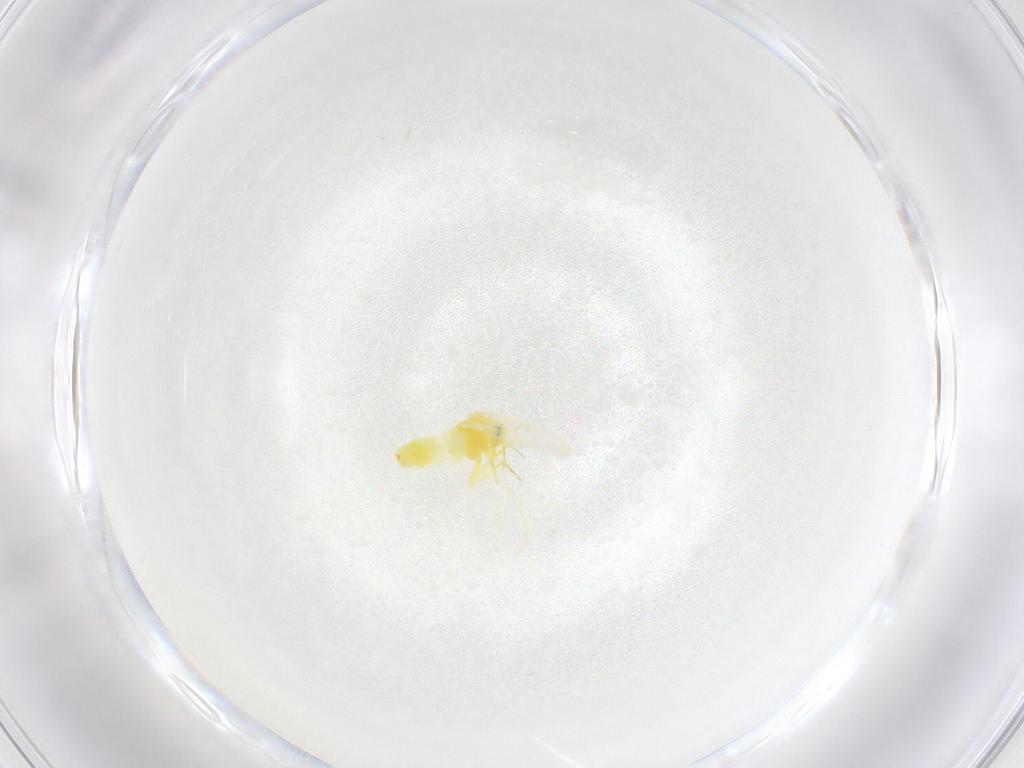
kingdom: Animalia
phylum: Arthropoda
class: Insecta
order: Hemiptera
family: Aleyrodidae
